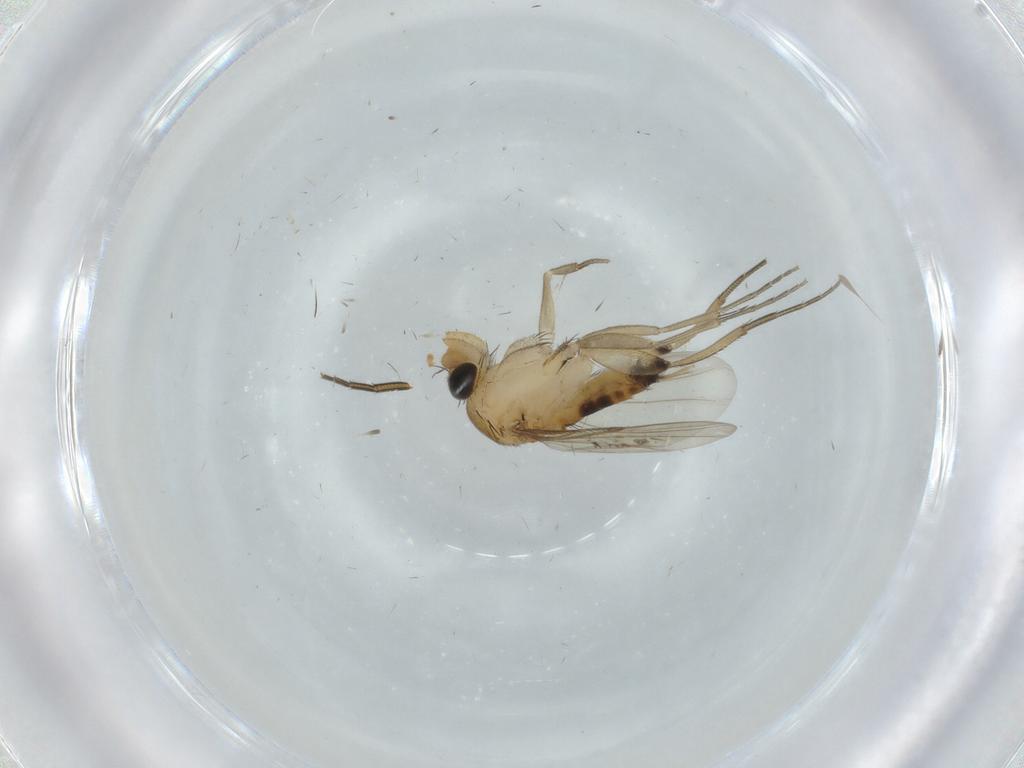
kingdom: Animalia
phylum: Arthropoda
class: Insecta
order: Diptera
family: Phoridae
